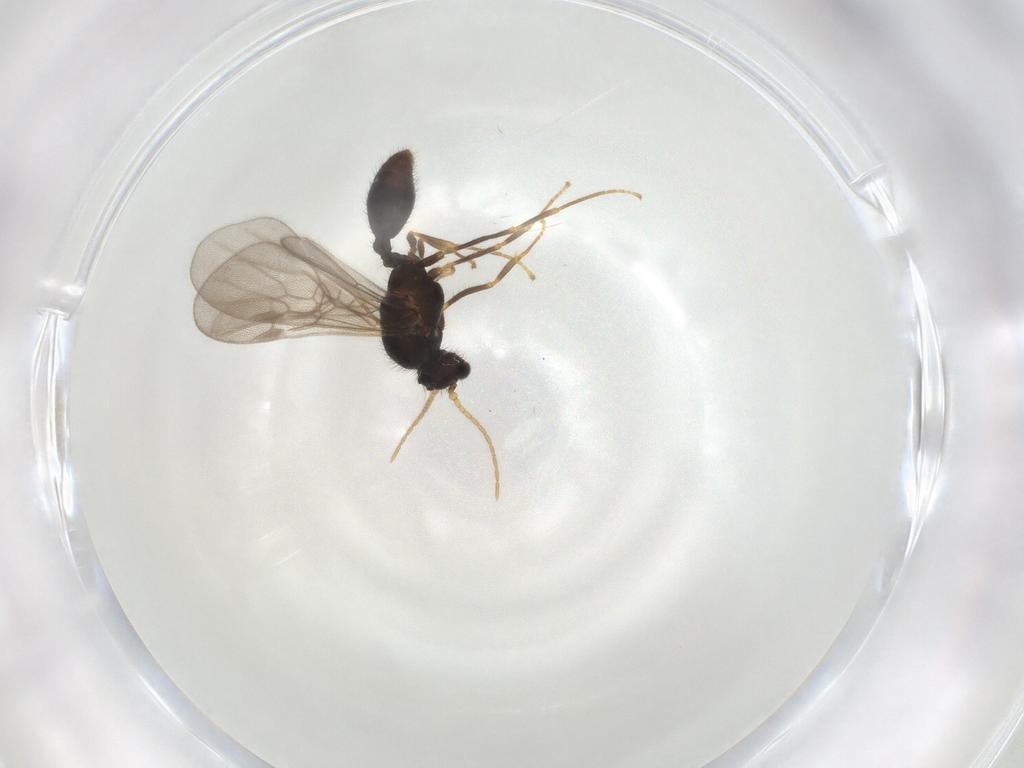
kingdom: Animalia
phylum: Arthropoda
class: Insecta
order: Hymenoptera
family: Formicidae
